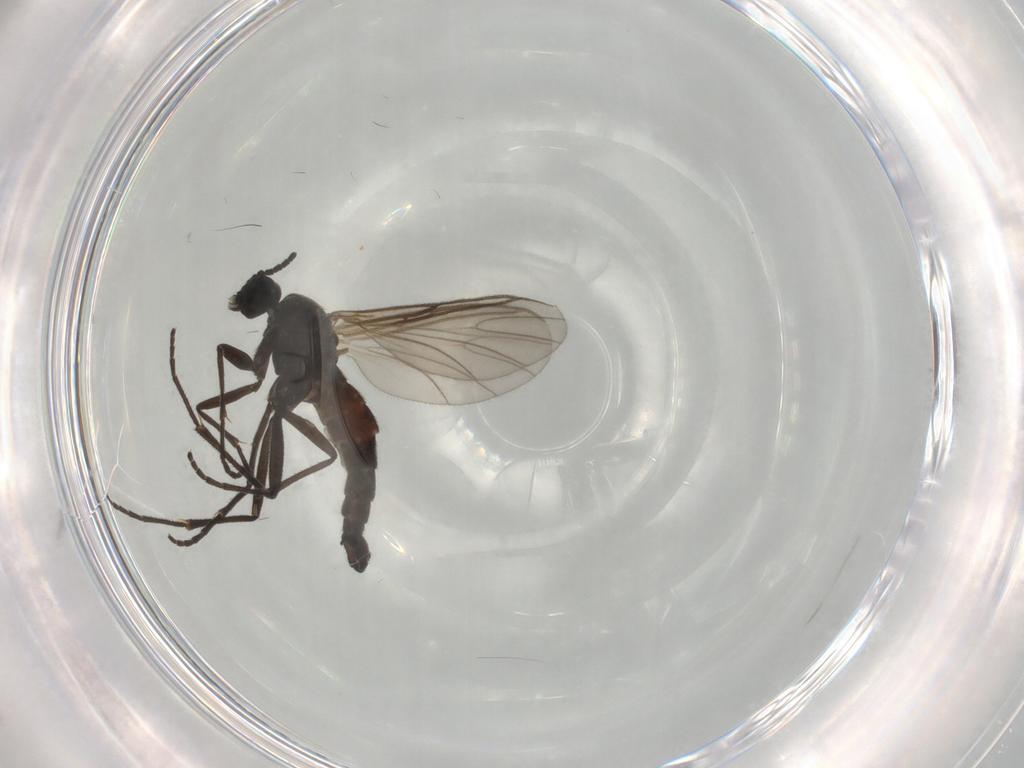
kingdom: Animalia
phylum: Arthropoda
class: Insecta
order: Diptera
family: Sciaridae
